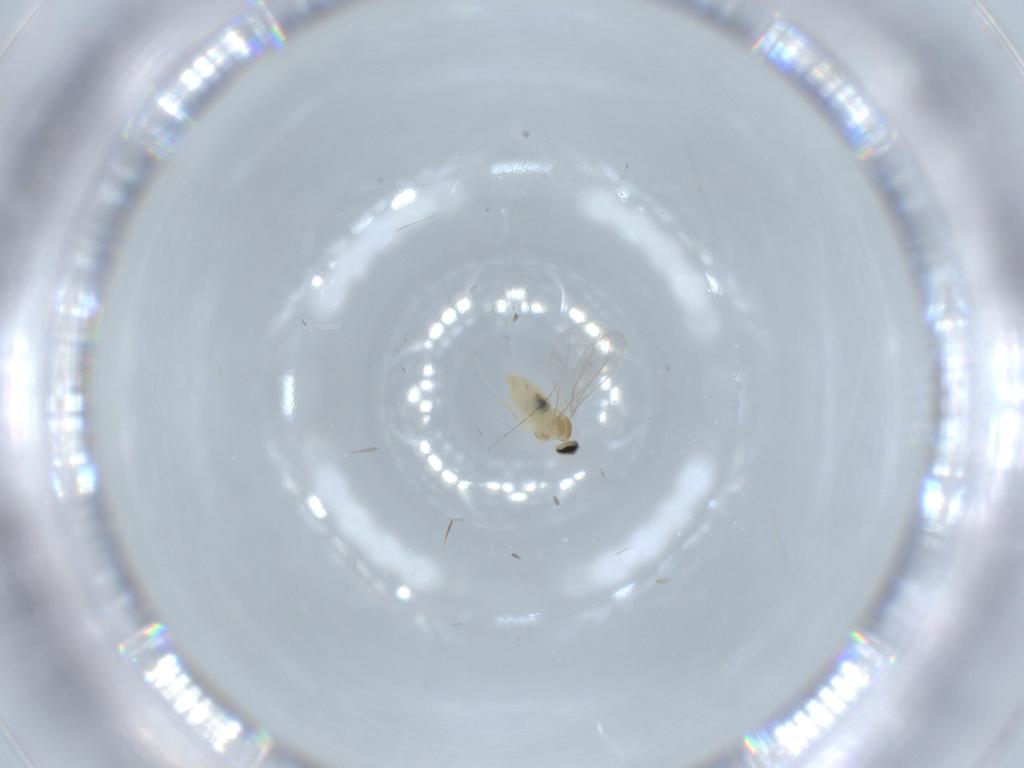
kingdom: Animalia
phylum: Arthropoda
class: Insecta
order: Diptera
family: Cecidomyiidae
